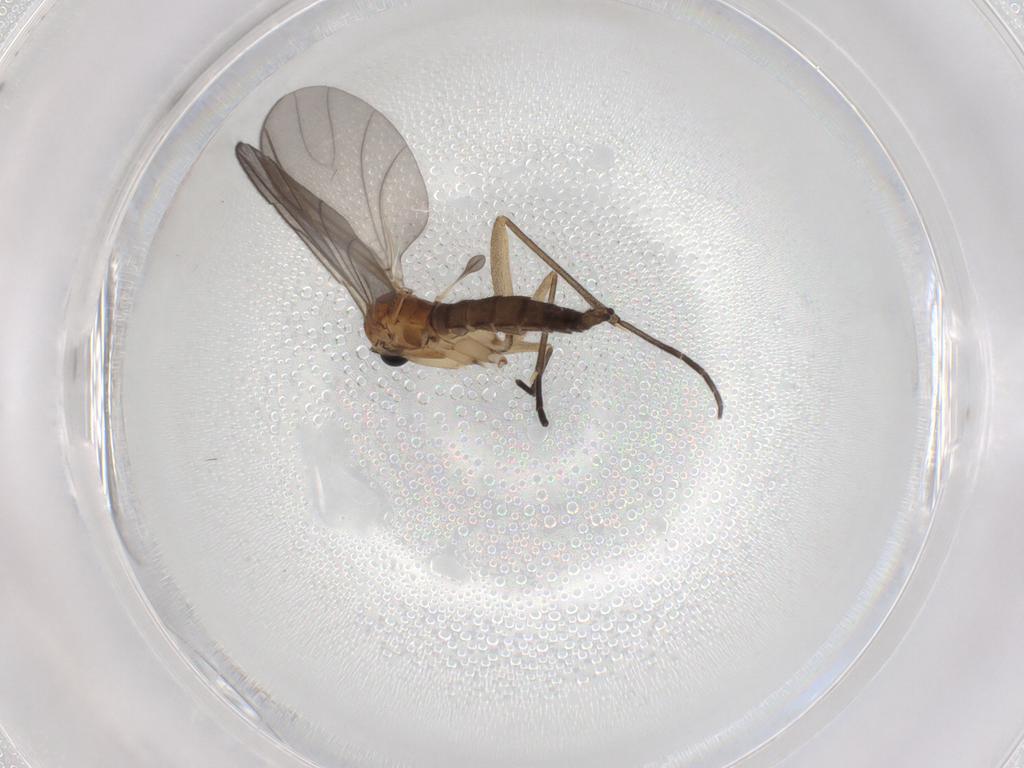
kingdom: Animalia
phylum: Arthropoda
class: Insecta
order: Diptera
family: Sciaridae
